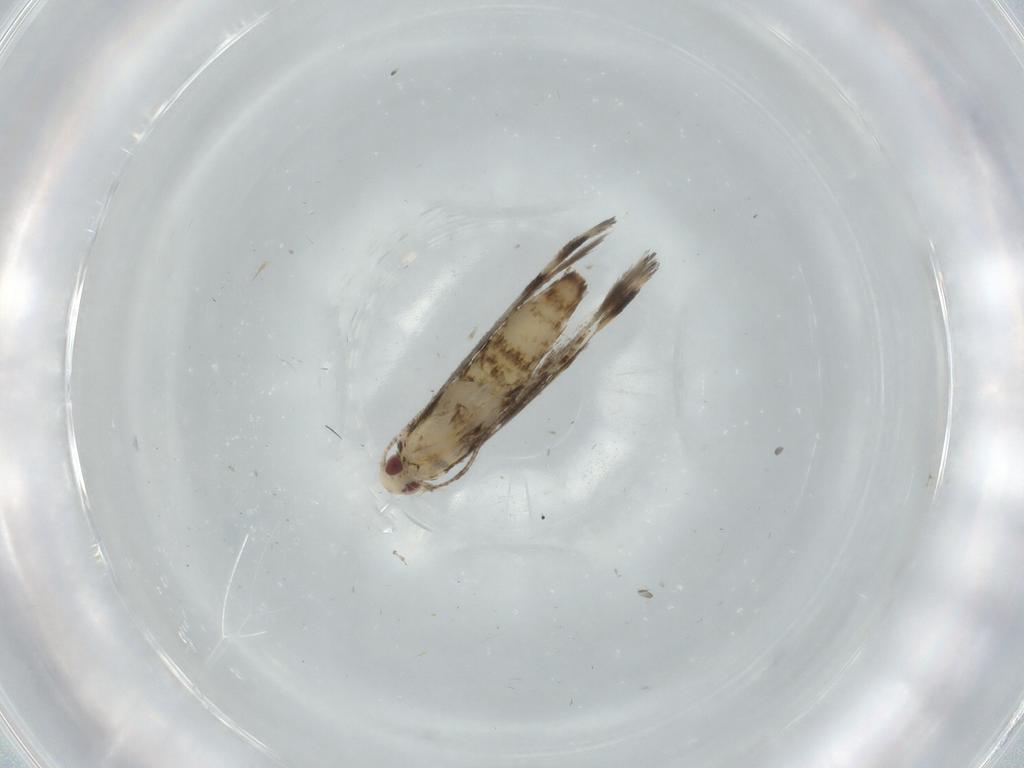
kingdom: Animalia
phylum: Arthropoda
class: Insecta
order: Lepidoptera
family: Gracillariidae
